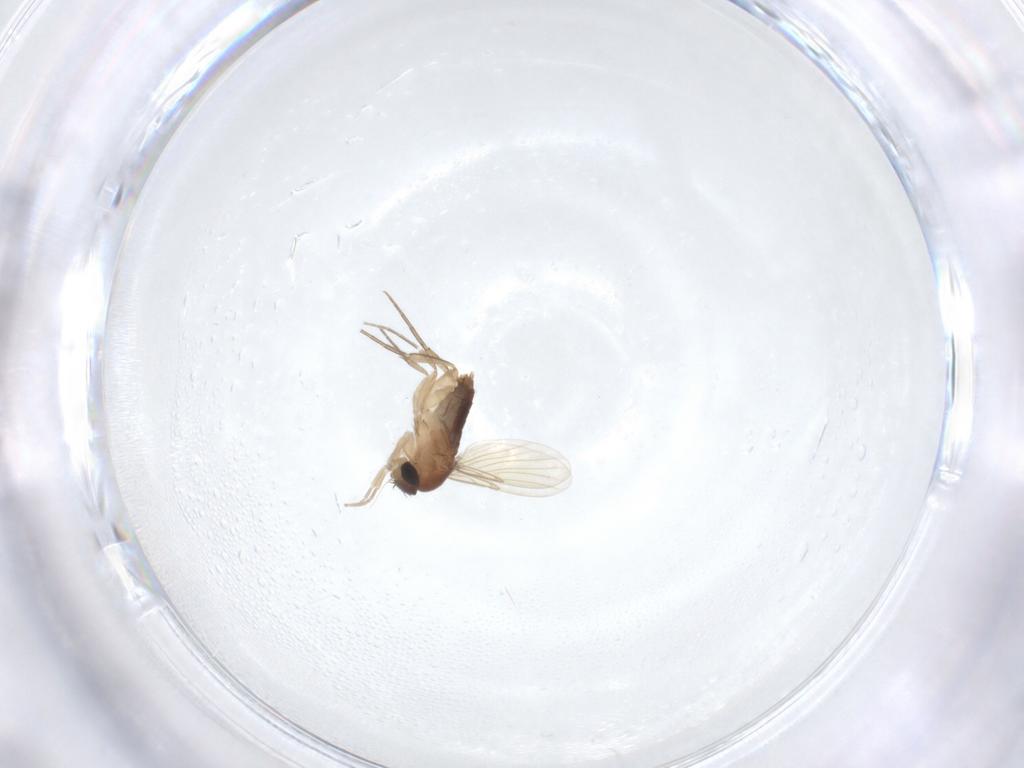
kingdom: Animalia
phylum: Arthropoda
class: Insecta
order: Diptera
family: Phoridae
